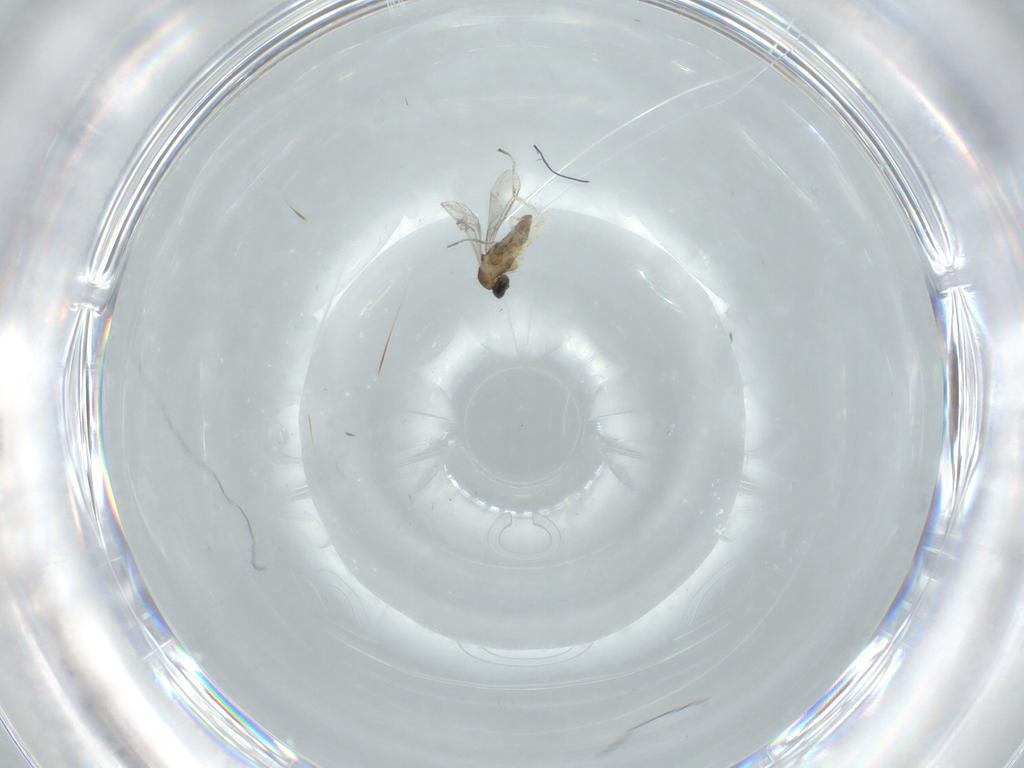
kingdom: Animalia
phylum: Arthropoda
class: Insecta
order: Diptera
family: Cecidomyiidae
